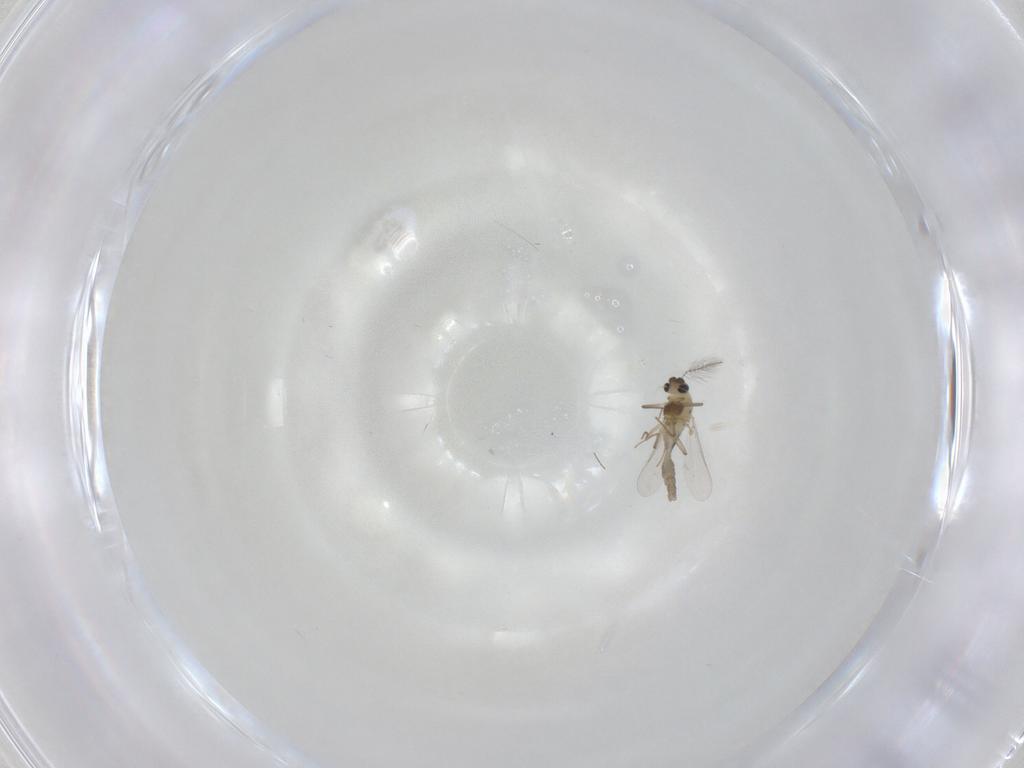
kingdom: Animalia
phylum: Arthropoda
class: Insecta
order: Diptera
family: Chironomidae
